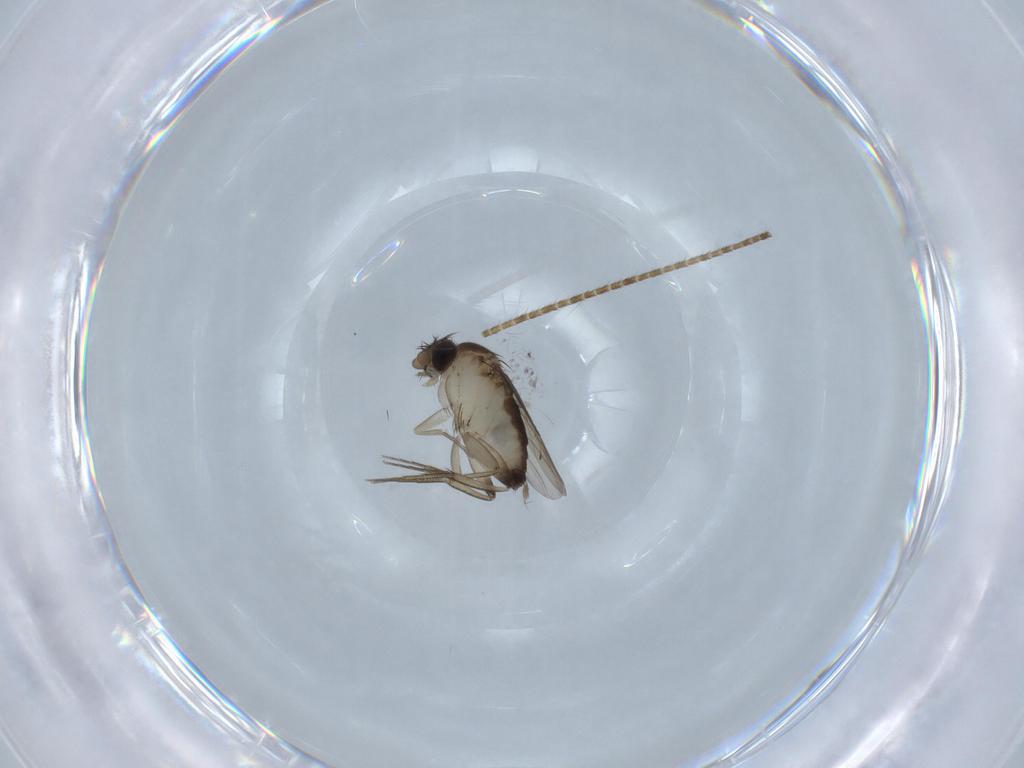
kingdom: Animalia
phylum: Arthropoda
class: Insecta
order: Diptera
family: Chironomidae
